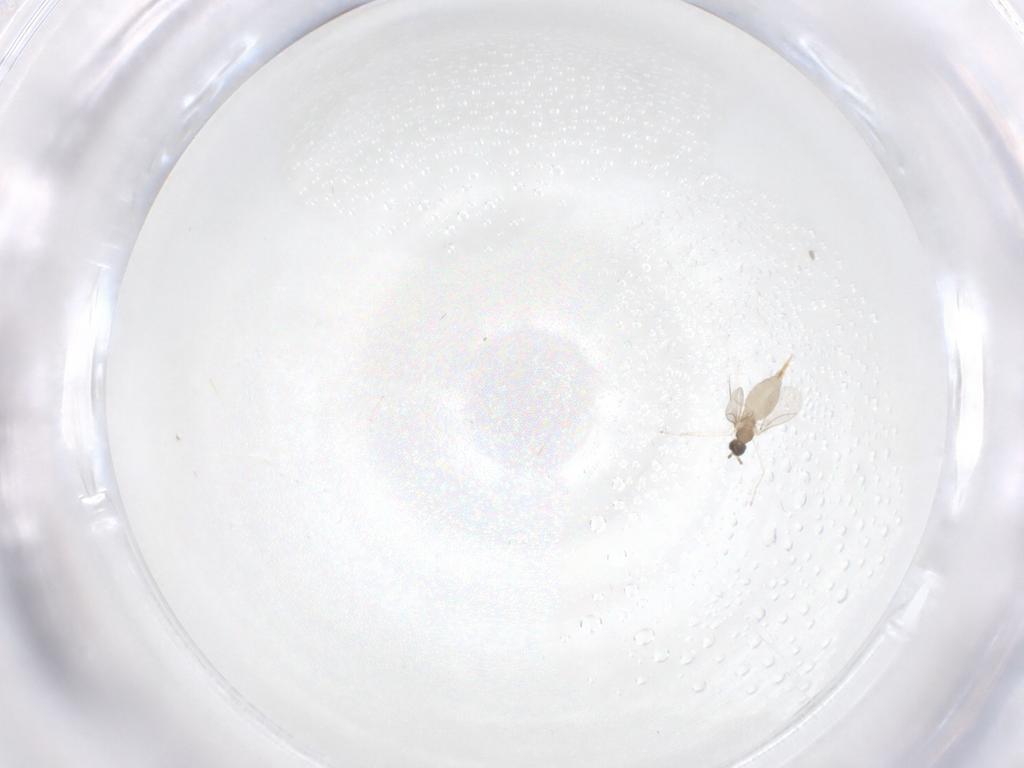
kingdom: Animalia
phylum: Arthropoda
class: Insecta
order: Diptera
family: Cecidomyiidae
